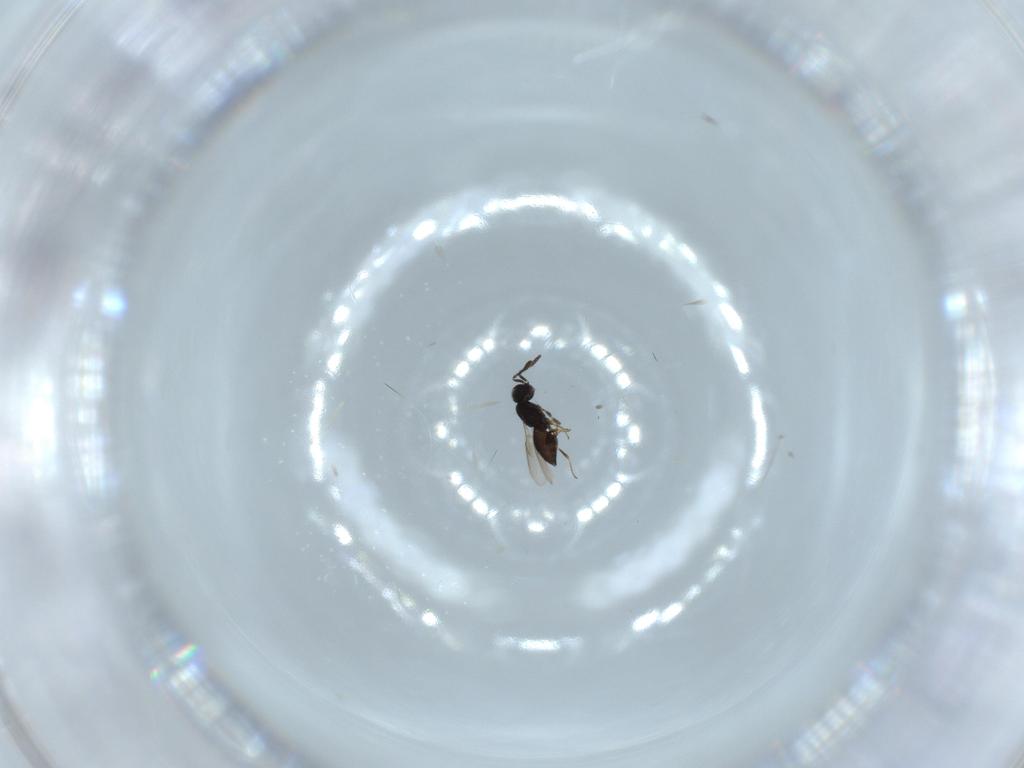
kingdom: Animalia
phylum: Arthropoda
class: Insecta
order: Hymenoptera
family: Scelionidae
